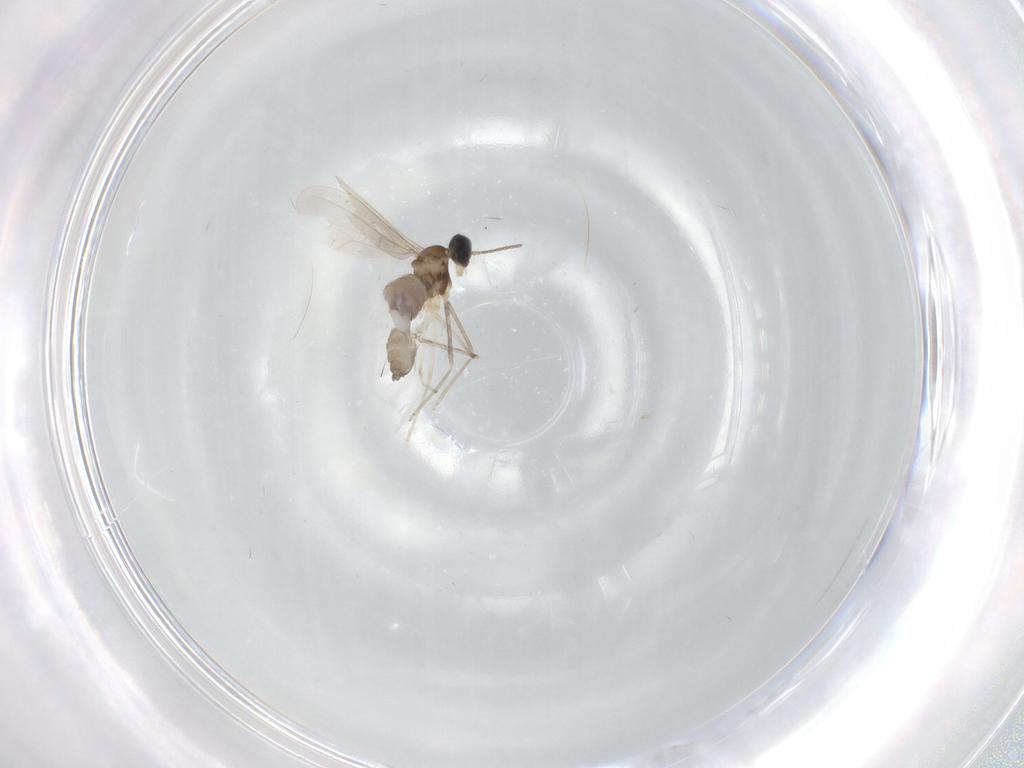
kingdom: Animalia
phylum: Arthropoda
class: Insecta
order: Diptera
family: Cecidomyiidae
